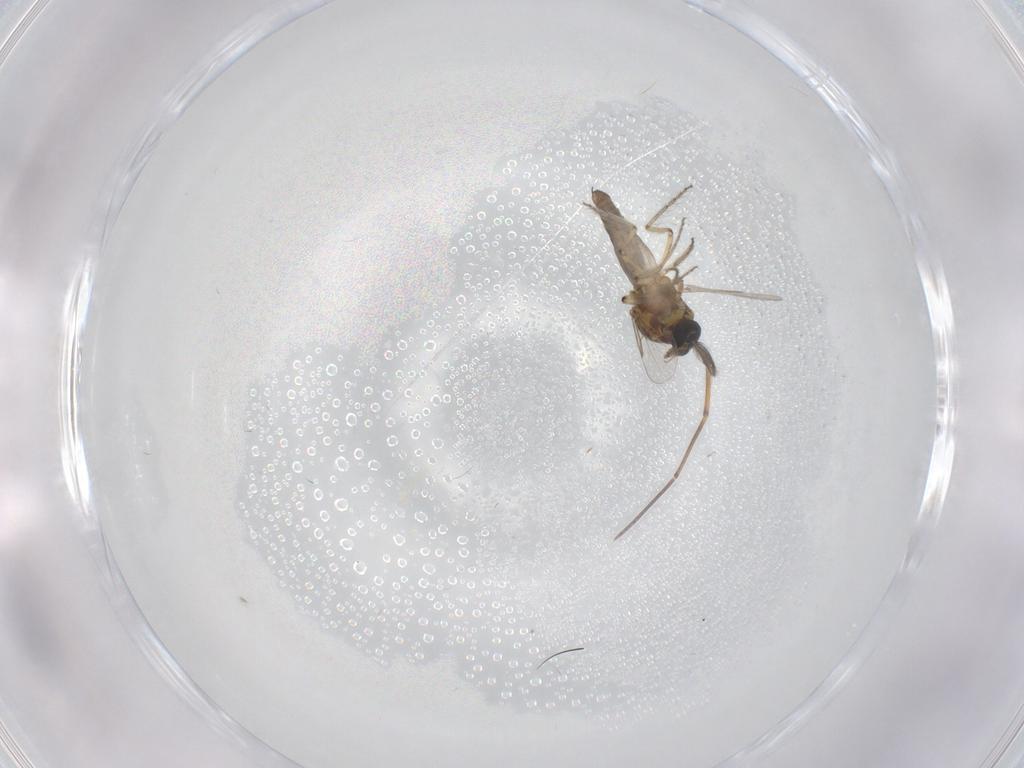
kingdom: Animalia
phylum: Arthropoda
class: Insecta
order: Diptera
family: Ceratopogonidae
